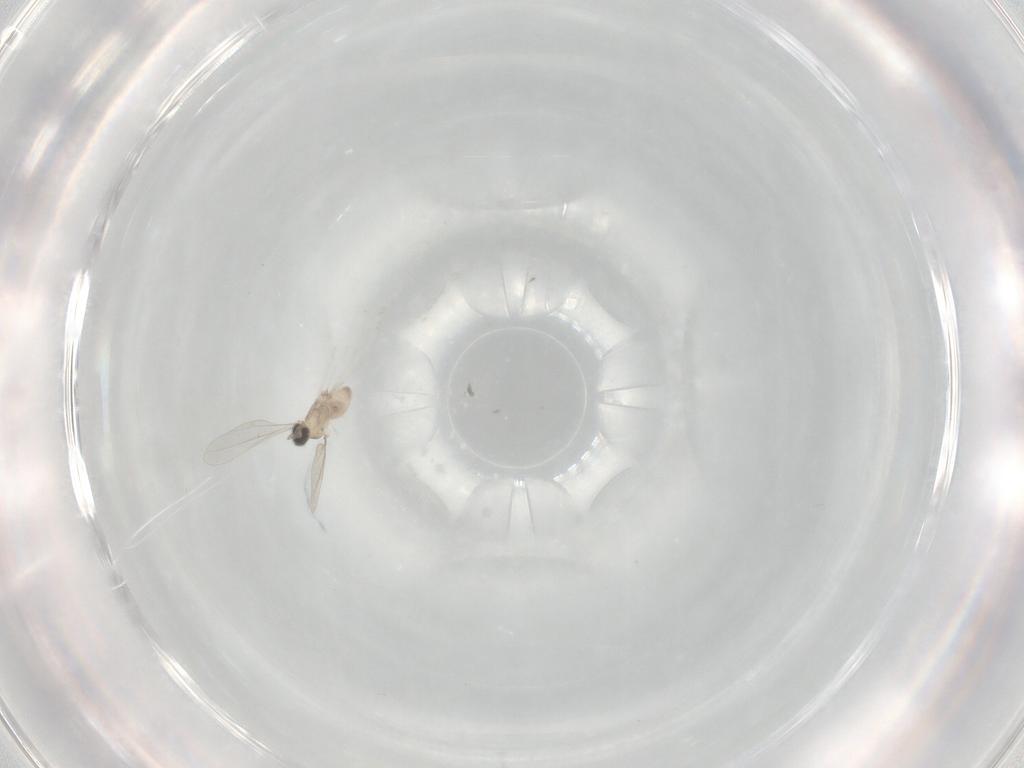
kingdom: Animalia
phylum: Arthropoda
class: Insecta
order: Diptera
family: Cecidomyiidae
